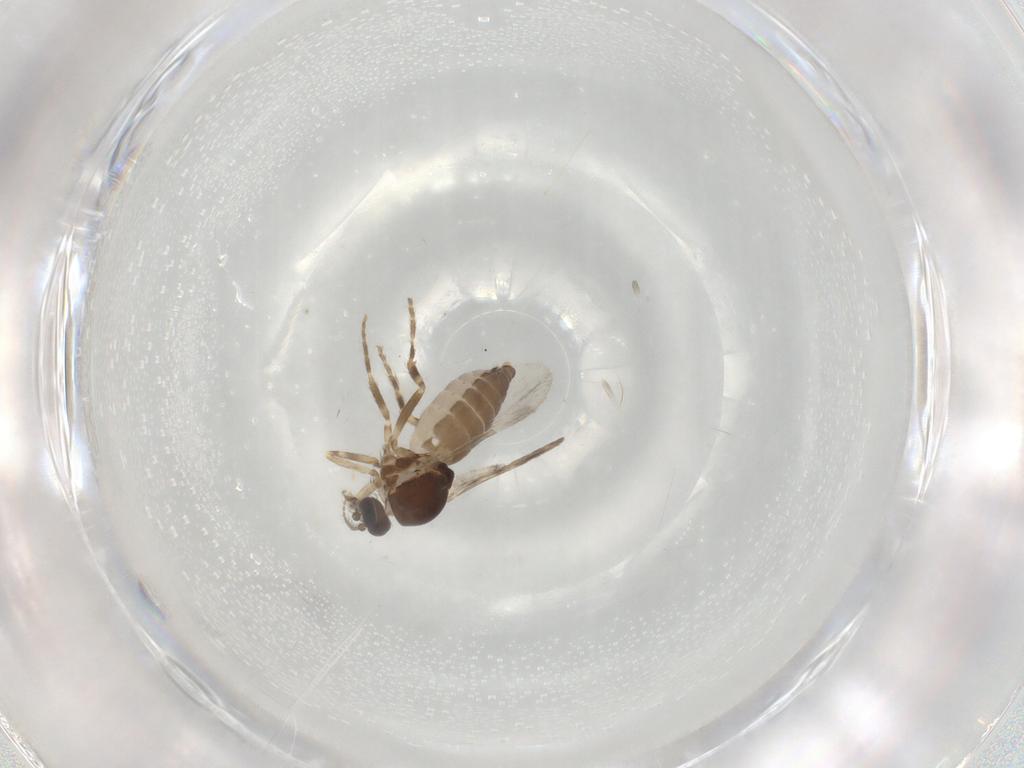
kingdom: Animalia
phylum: Arthropoda
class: Insecta
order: Diptera
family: Ceratopogonidae
